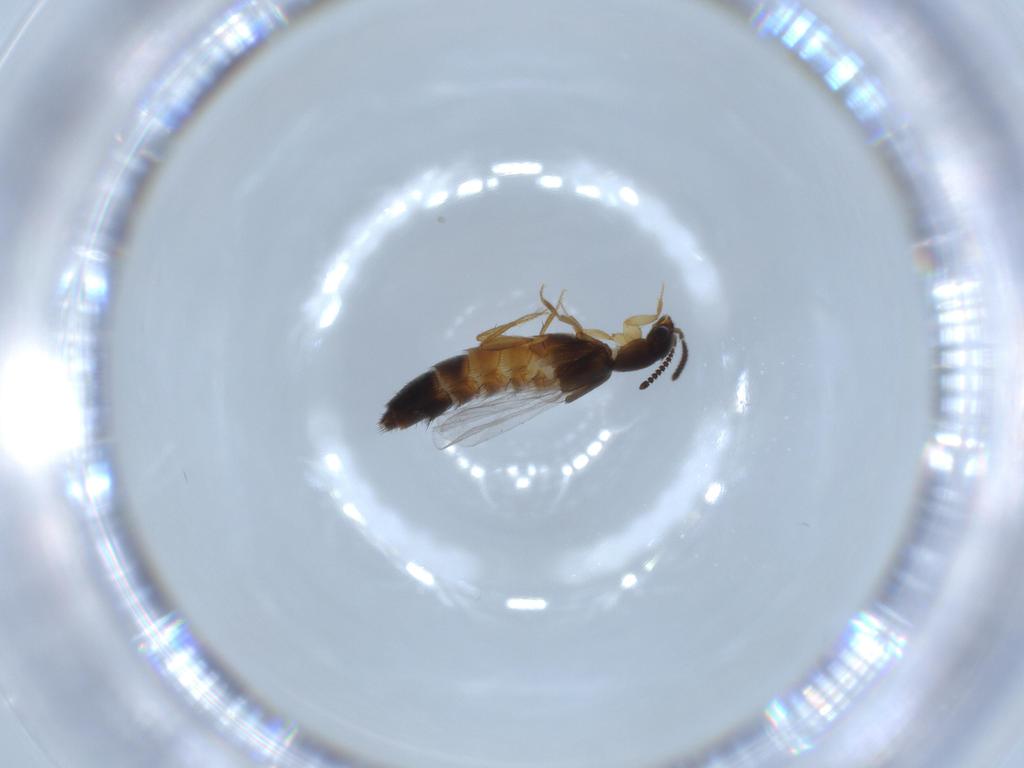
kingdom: Animalia
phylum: Arthropoda
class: Insecta
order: Coleoptera
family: Staphylinidae
